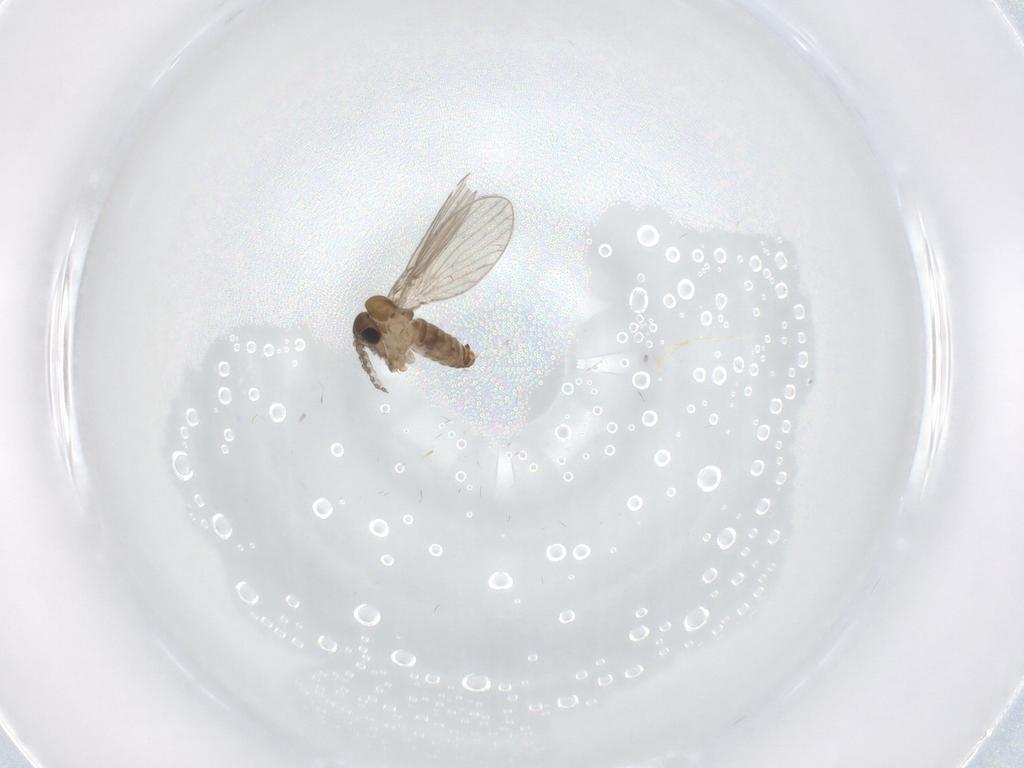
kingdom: Animalia
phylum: Arthropoda
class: Insecta
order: Diptera
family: Psychodidae
